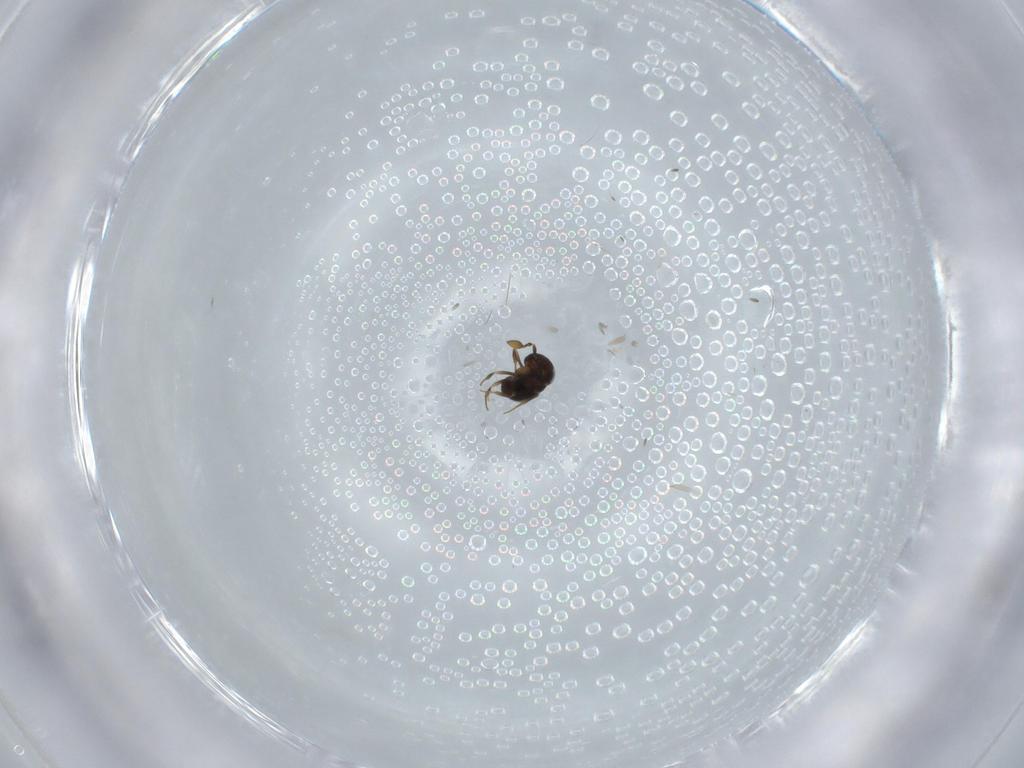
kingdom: Animalia
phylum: Arthropoda
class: Insecta
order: Hymenoptera
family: Scelionidae
